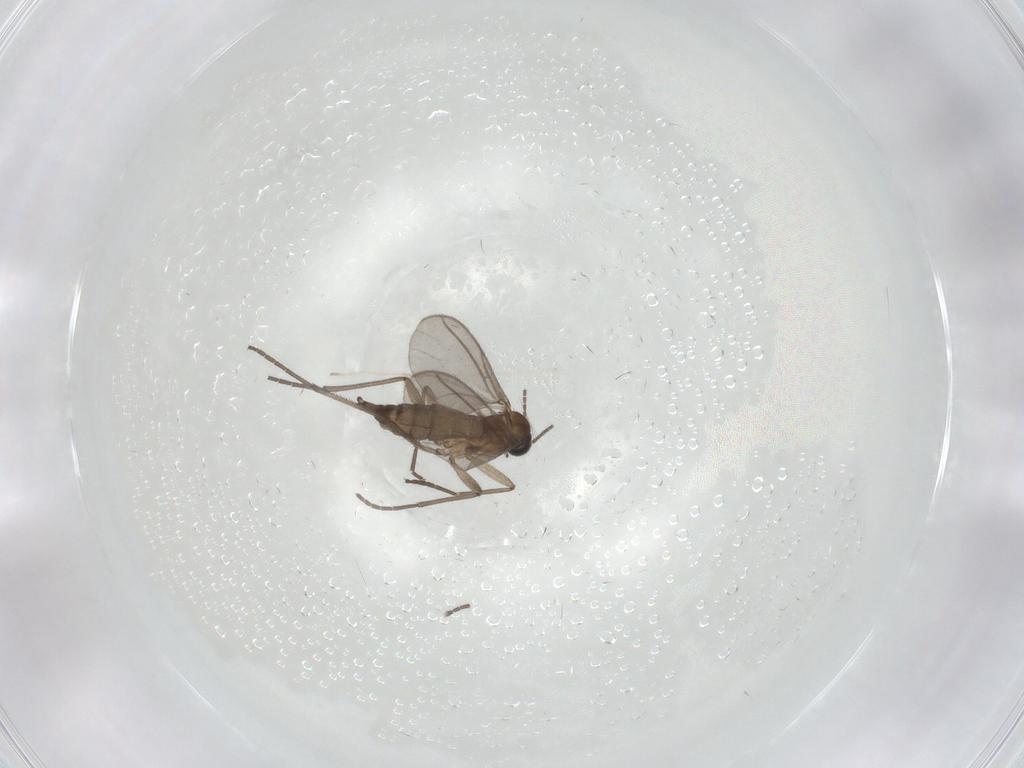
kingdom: Animalia
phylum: Arthropoda
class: Insecta
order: Diptera
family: Chironomidae
